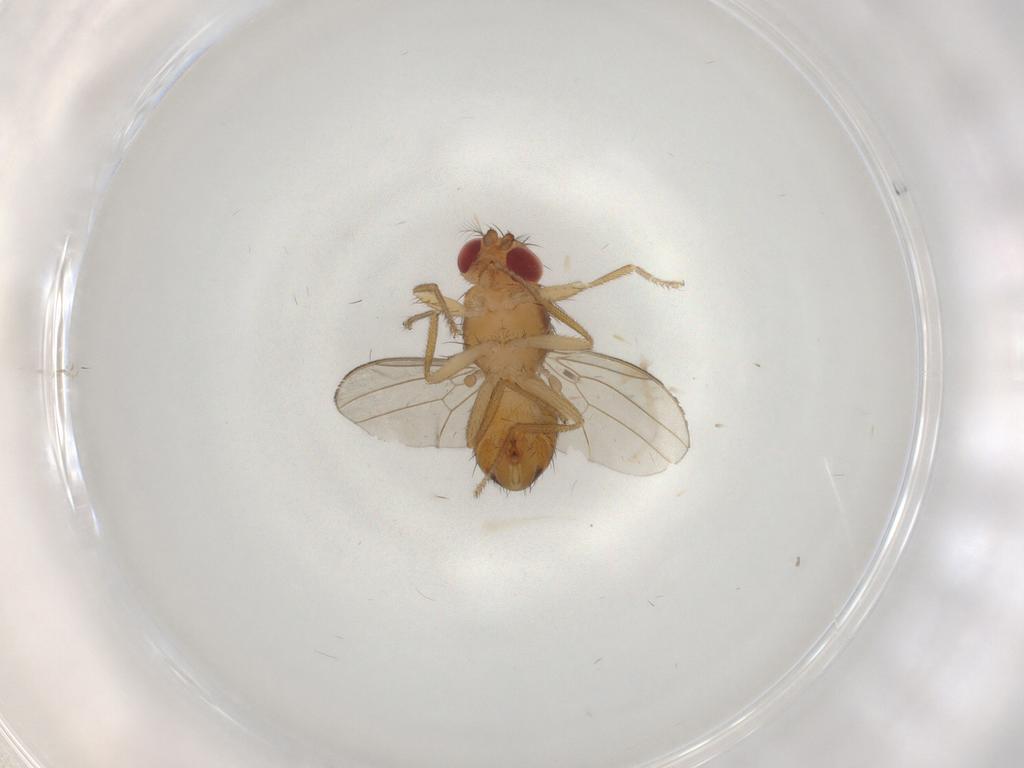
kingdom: Animalia
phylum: Arthropoda
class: Insecta
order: Diptera
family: Drosophilidae
